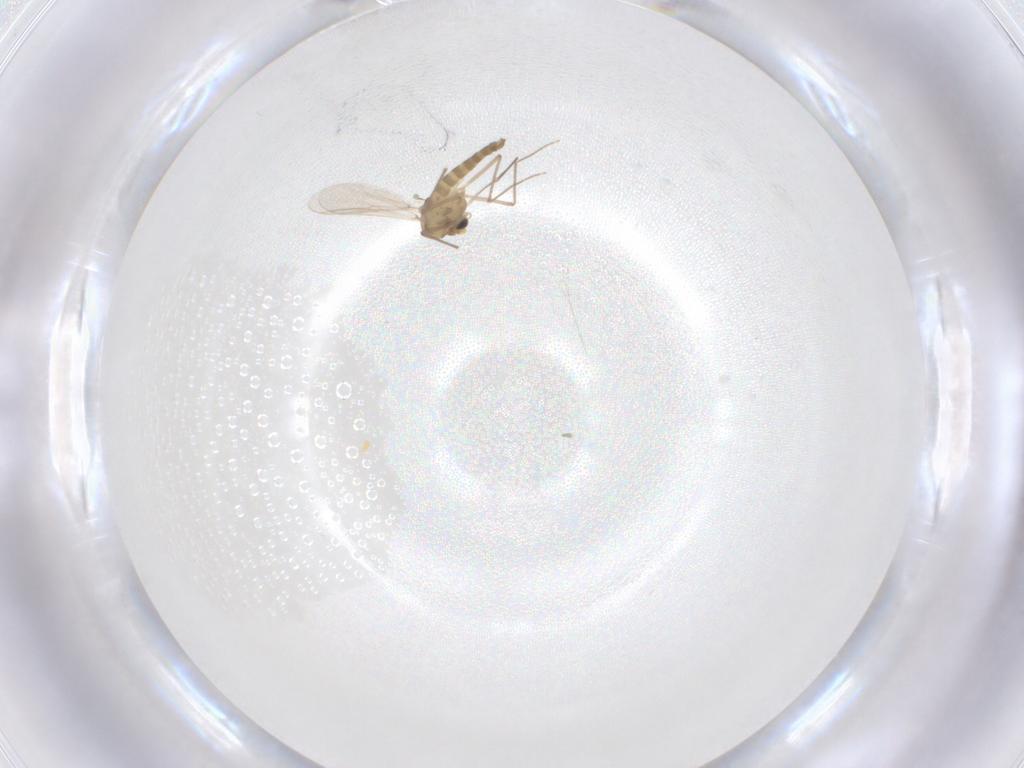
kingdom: Animalia
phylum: Arthropoda
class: Insecta
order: Diptera
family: Chironomidae
